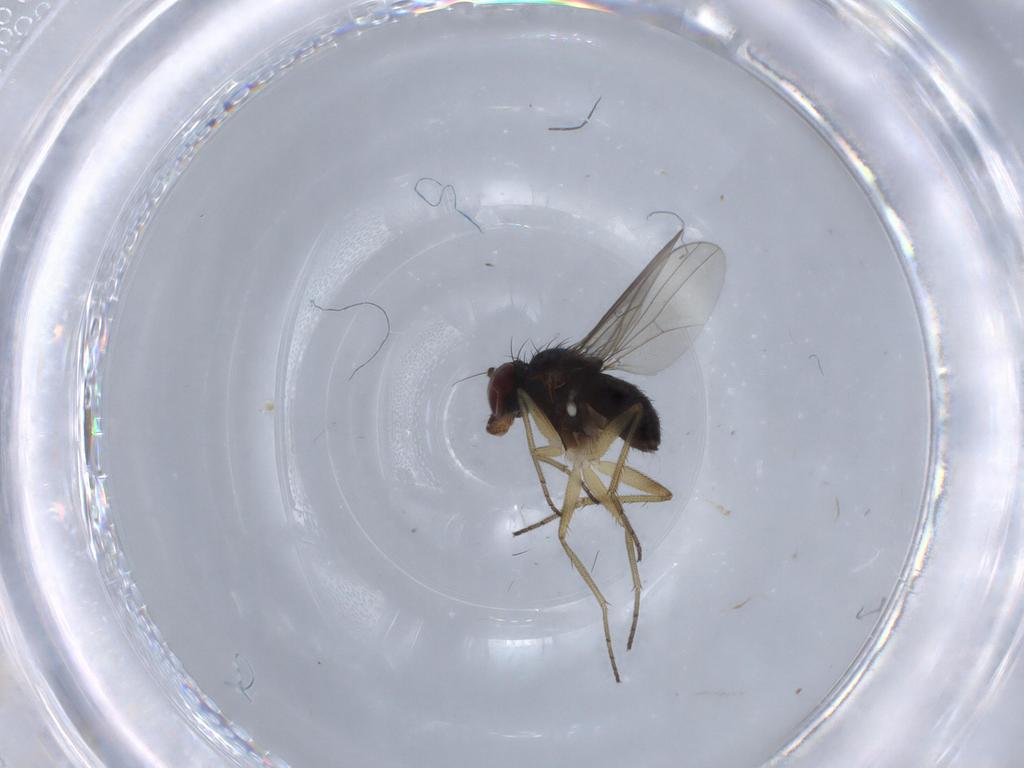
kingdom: Animalia
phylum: Arthropoda
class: Insecta
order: Diptera
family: Dolichopodidae
